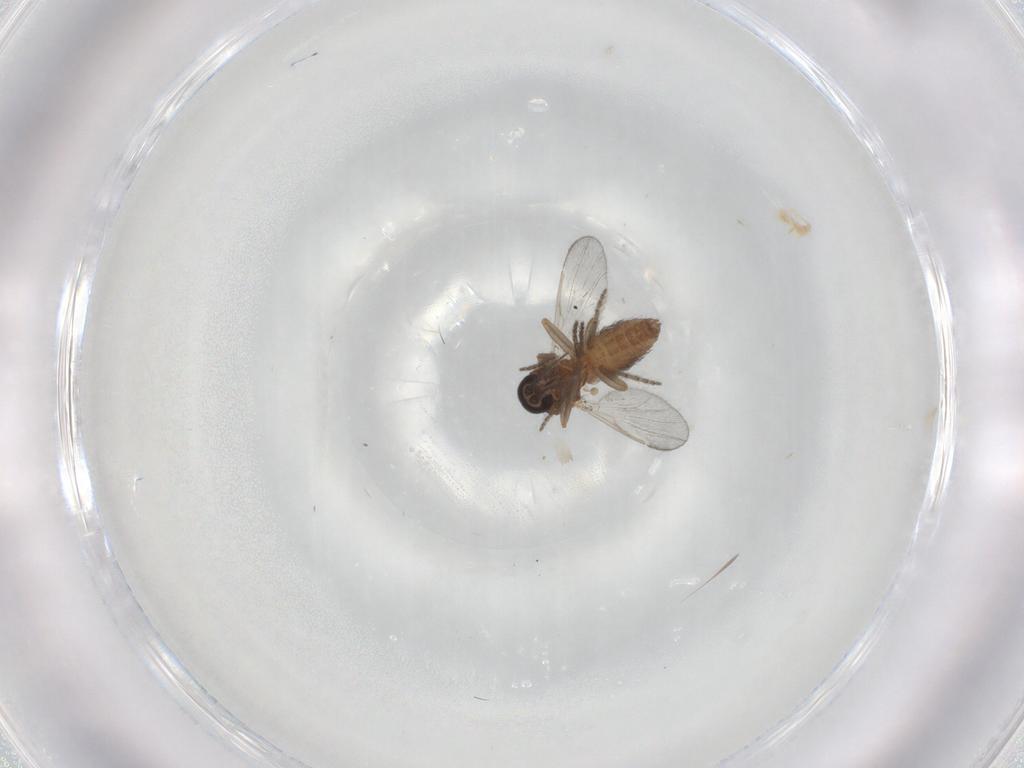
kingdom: Animalia
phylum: Arthropoda
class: Insecta
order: Diptera
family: Ceratopogonidae
